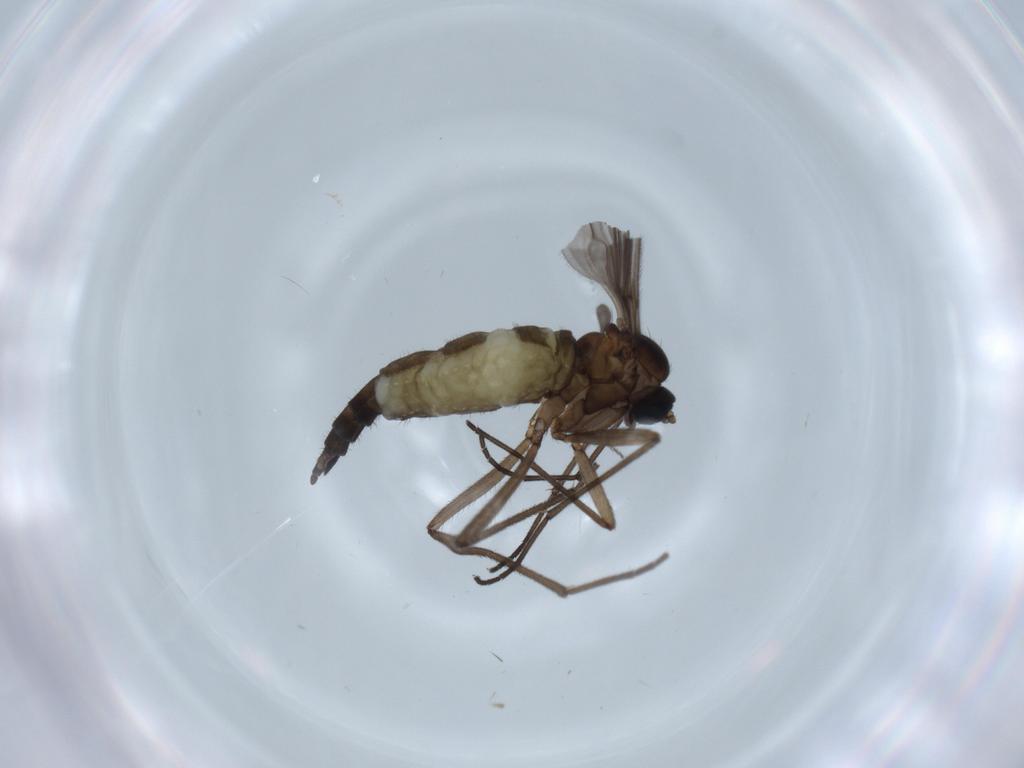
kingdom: Animalia
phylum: Arthropoda
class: Insecta
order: Diptera
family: Sciaridae
